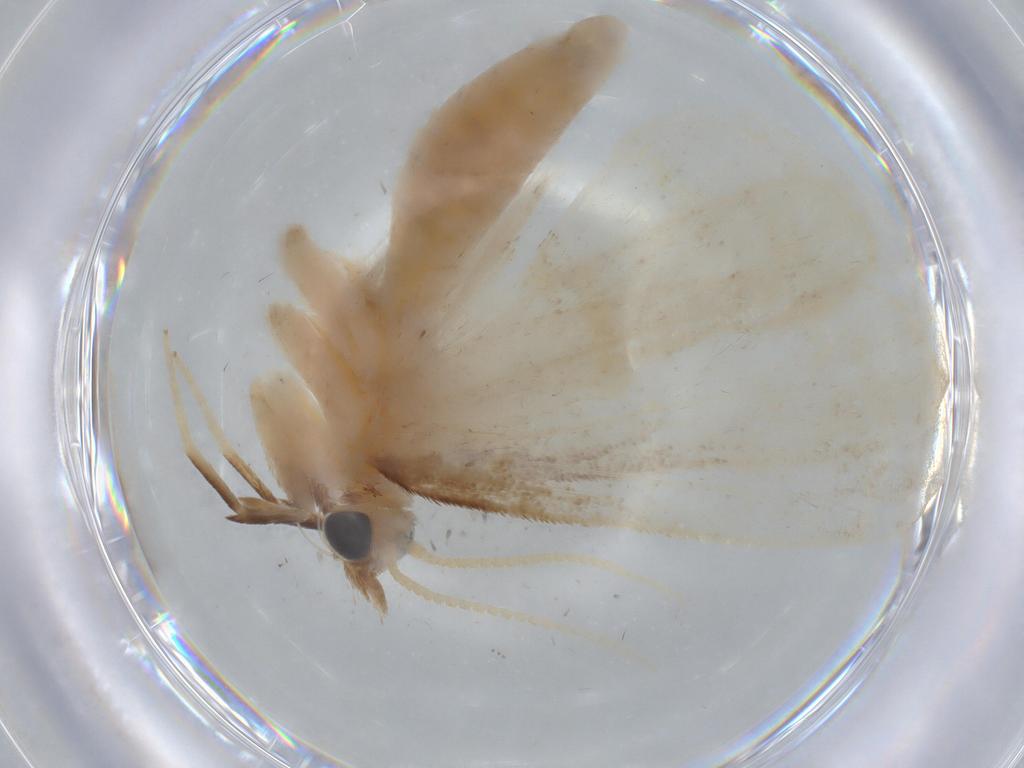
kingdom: Animalia
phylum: Arthropoda
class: Insecta
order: Lepidoptera
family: Crambidae
